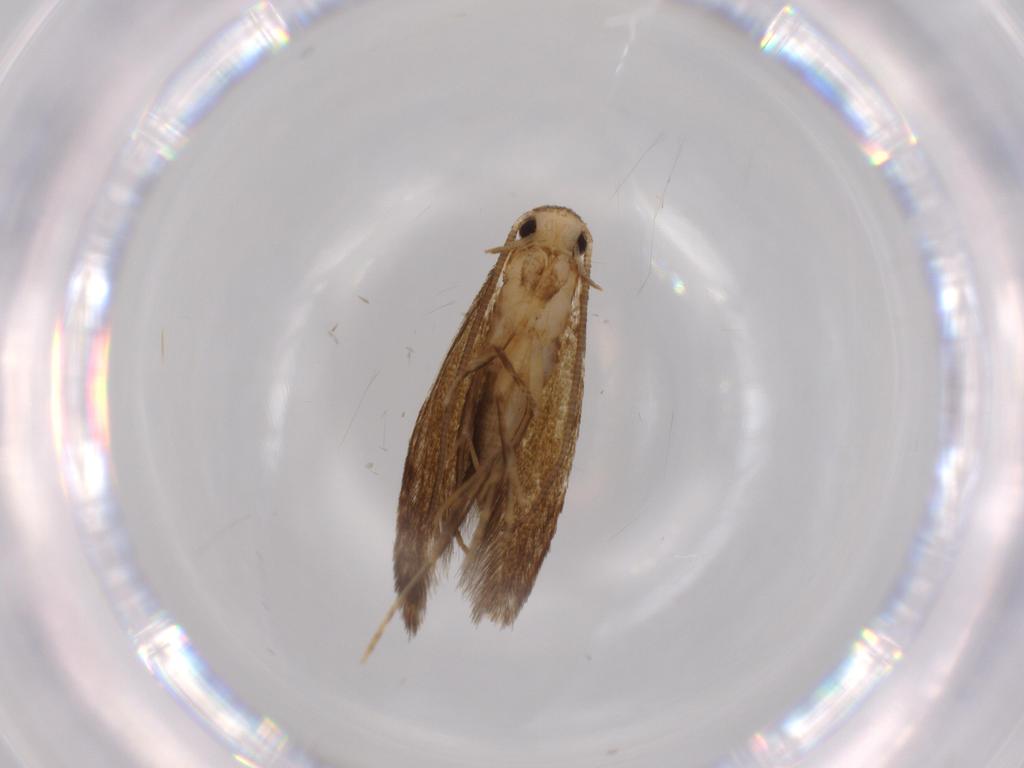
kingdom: Animalia
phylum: Arthropoda
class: Insecta
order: Lepidoptera
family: Tineidae
